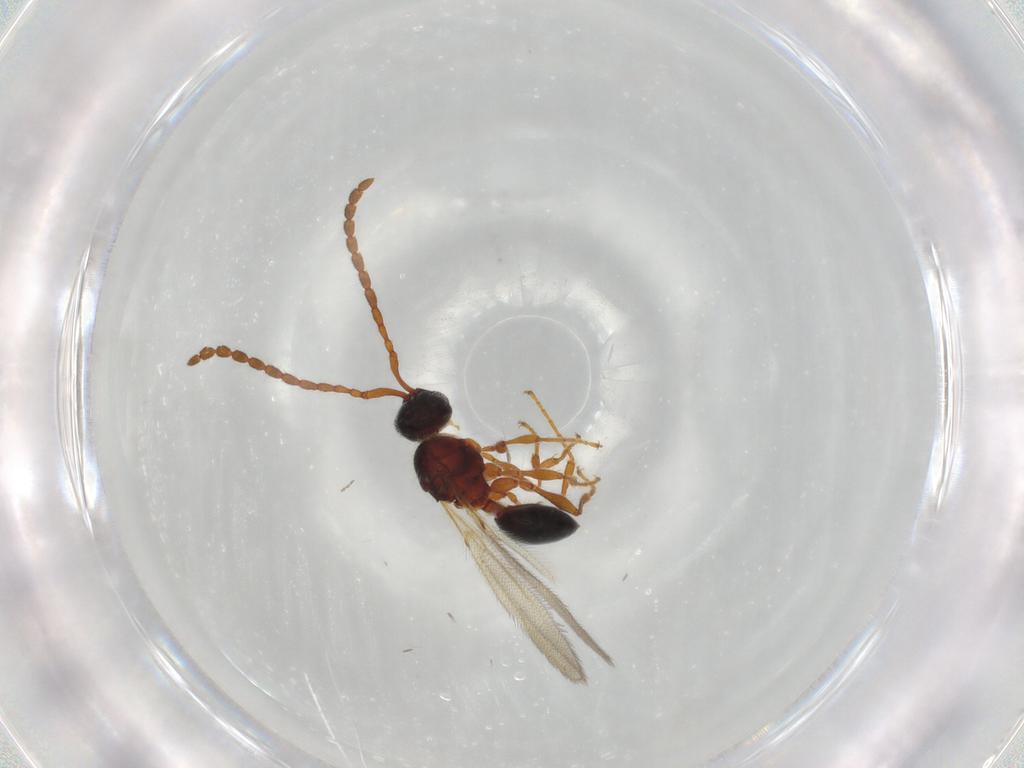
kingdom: Animalia
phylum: Arthropoda
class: Insecta
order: Hymenoptera
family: Diapriidae
